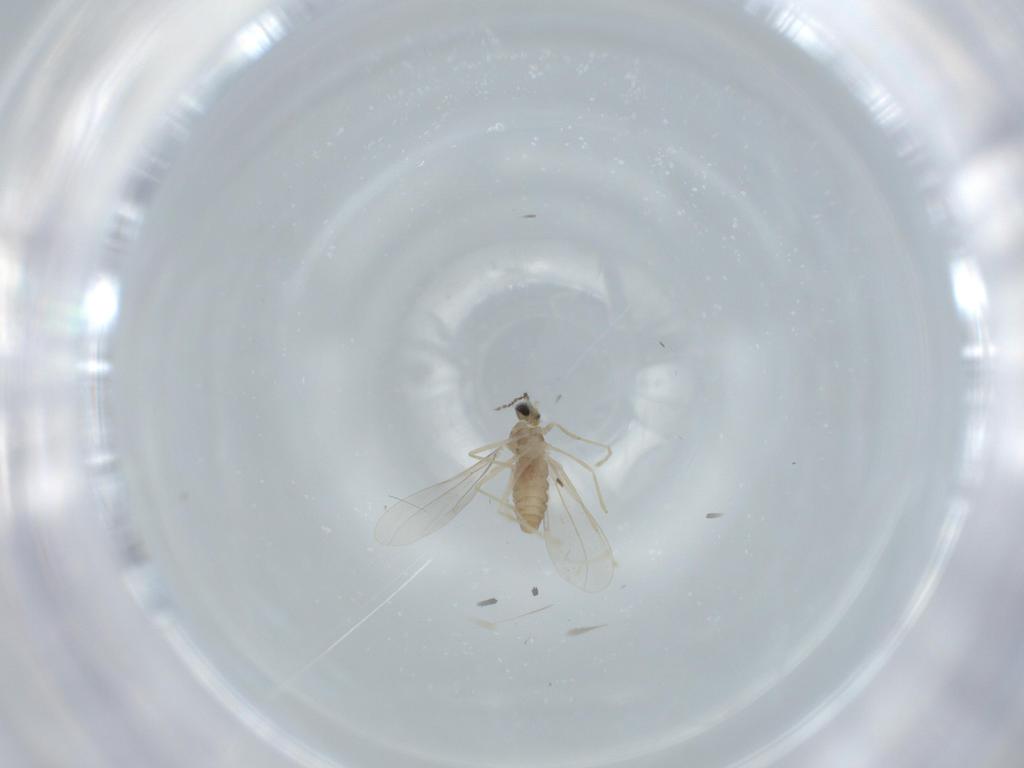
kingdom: Animalia
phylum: Arthropoda
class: Insecta
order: Diptera
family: Cecidomyiidae
